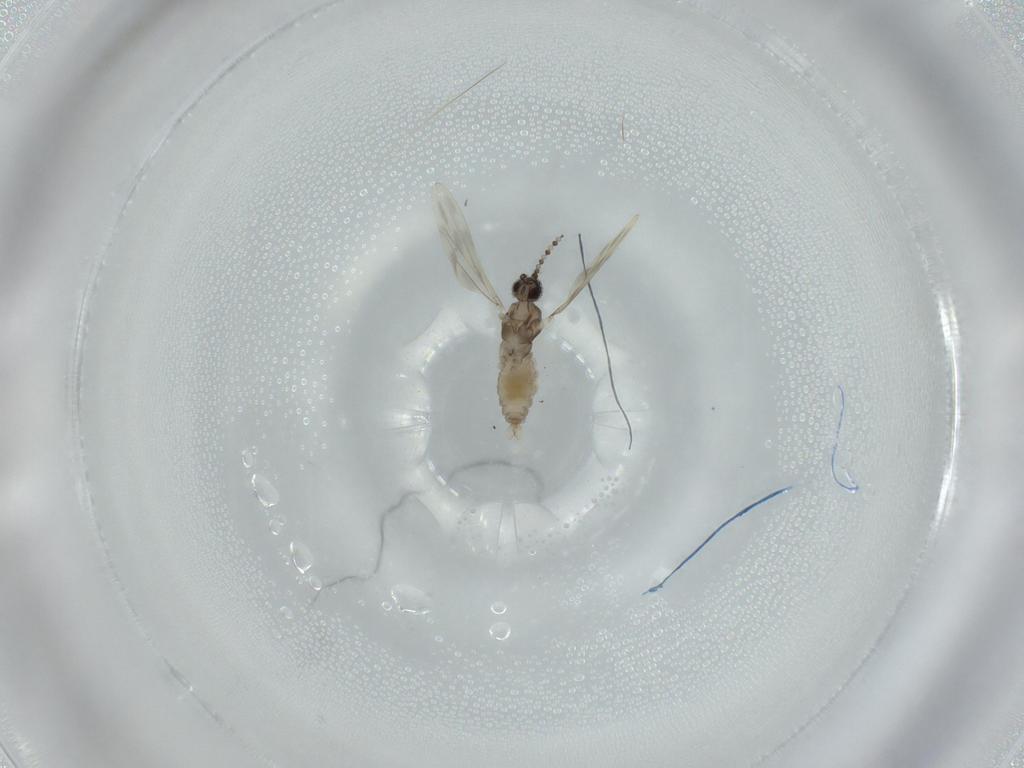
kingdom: Animalia
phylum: Arthropoda
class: Insecta
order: Diptera
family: Cecidomyiidae
